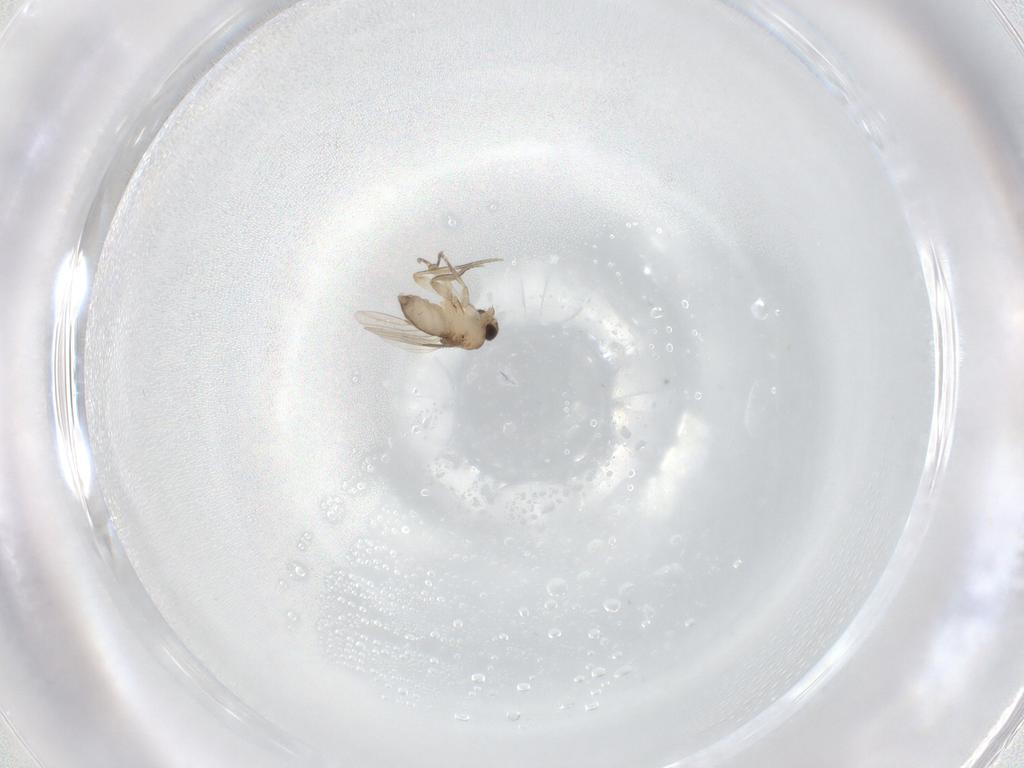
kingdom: Animalia
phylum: Arthropoda
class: Insecta
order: Diptera
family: Phoridae
